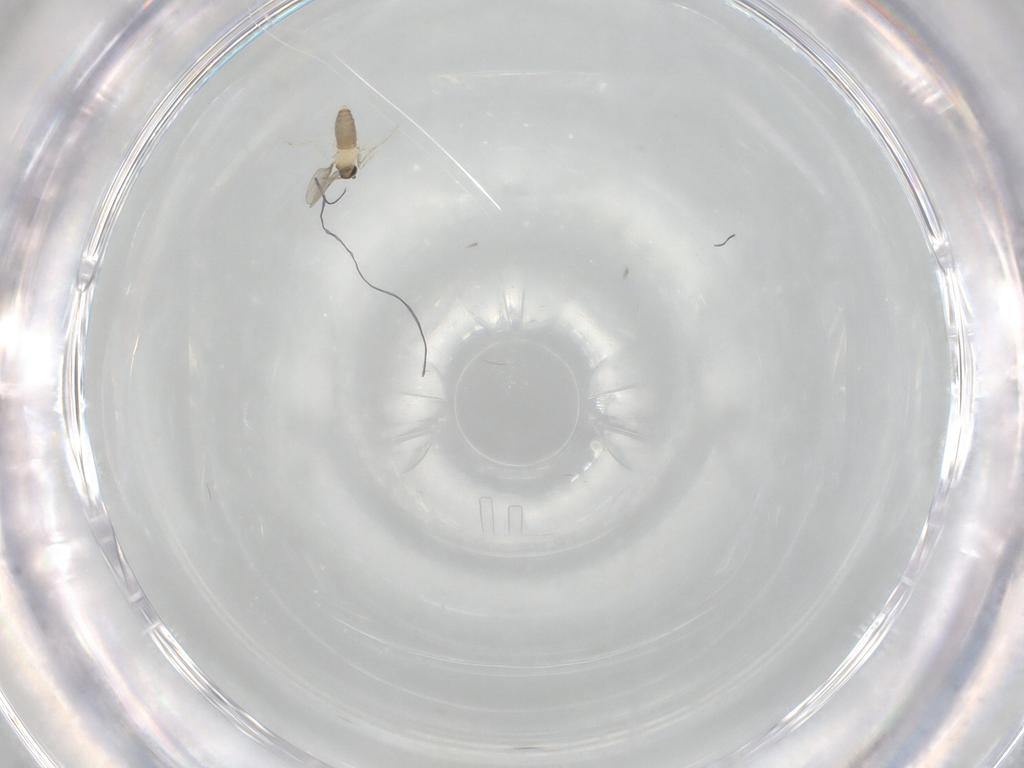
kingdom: Animalia
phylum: Arthropoda
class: Insecta
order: Diptera
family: Cecidomyiidae
